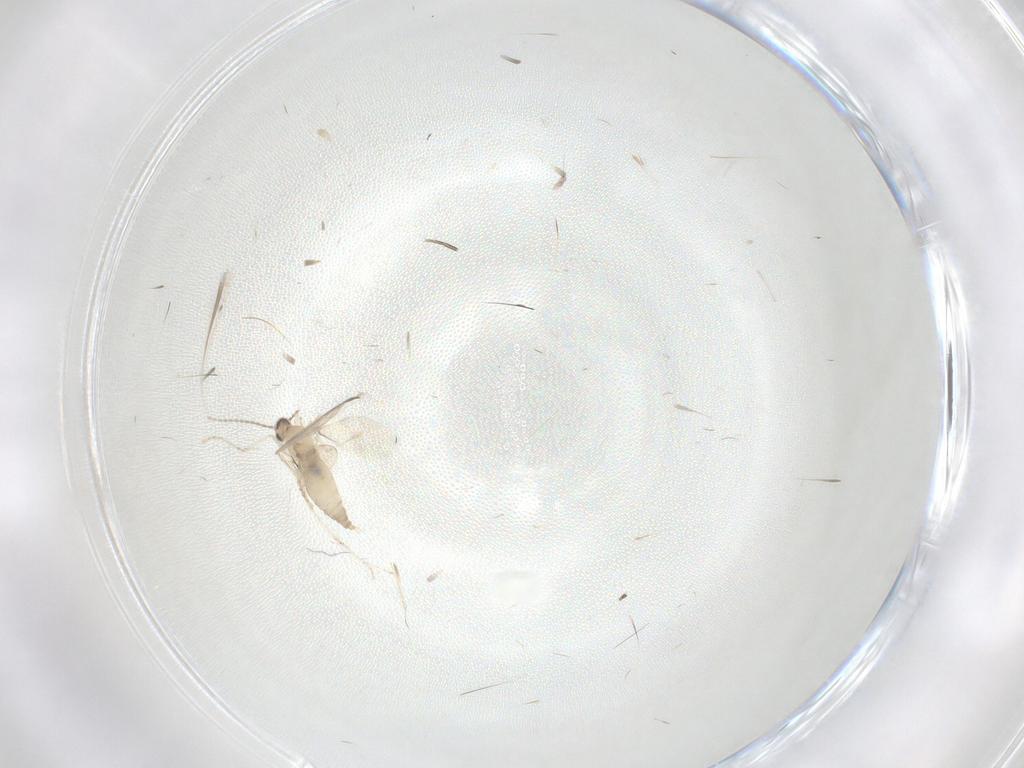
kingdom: Animalia
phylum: Arthropoda
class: Insecta
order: Diptera
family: Cecidomyiidae
